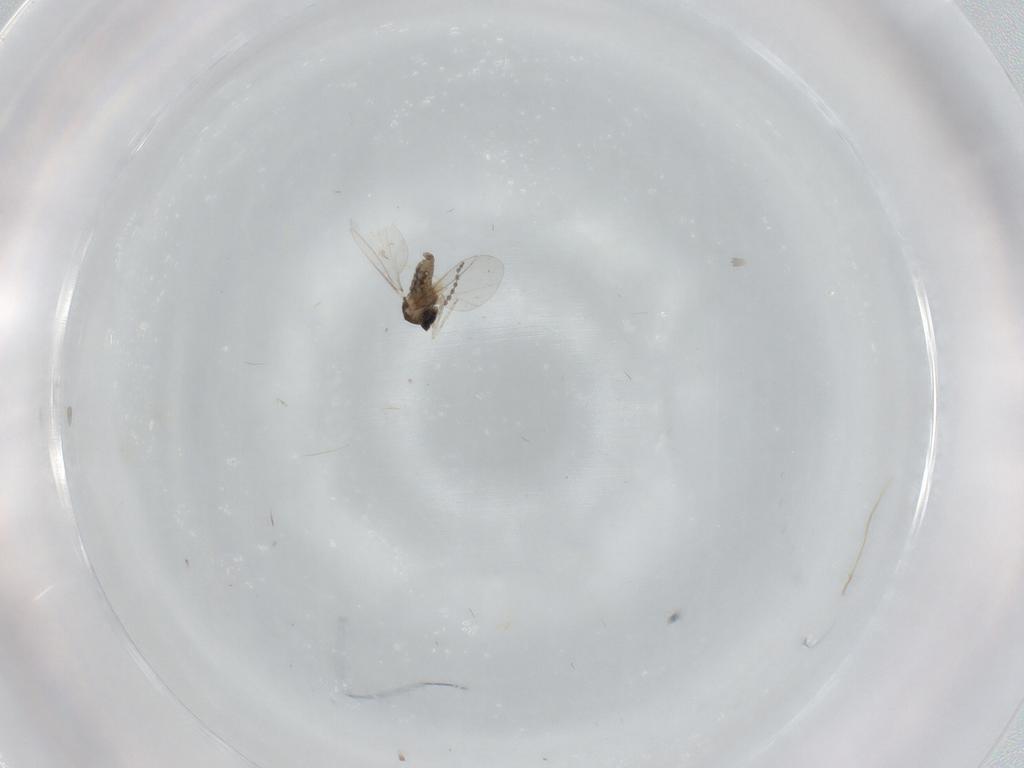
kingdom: Animalia
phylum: Arthropoda
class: Insecta
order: Diptera
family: Cecidomyiidae
